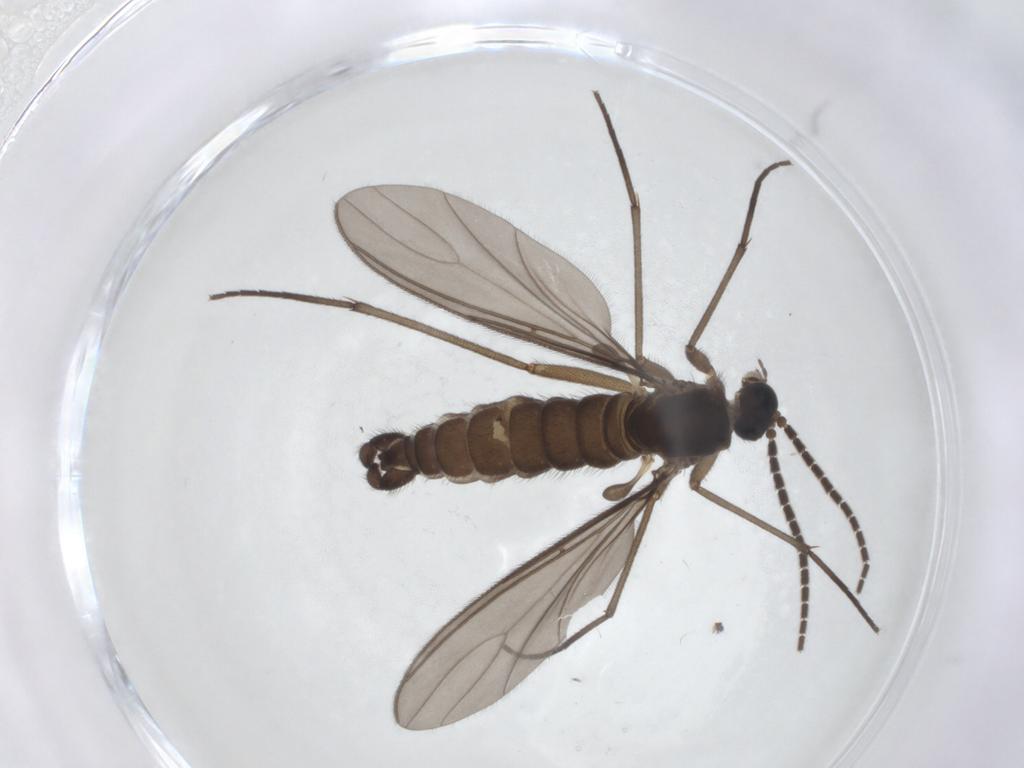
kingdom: Animalia
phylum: Arthropoda
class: Insecta
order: Diptera
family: Sciaridae
